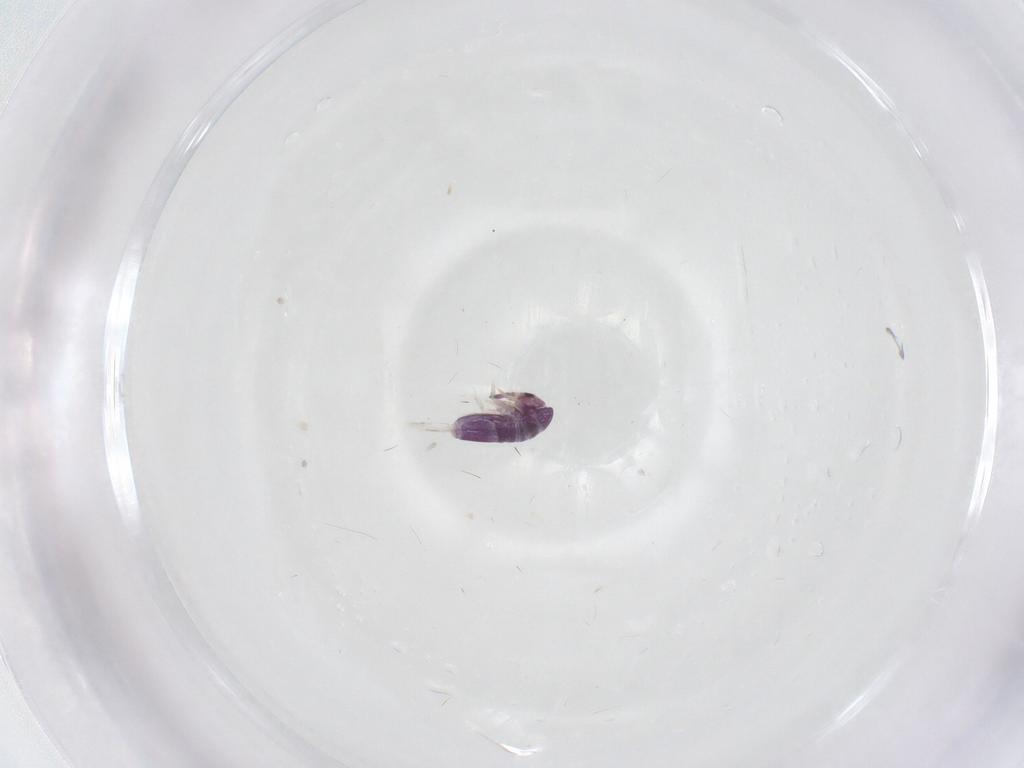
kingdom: Animalia
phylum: Arthropoda
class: Collembola
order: Entomobryomorpha
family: Entomobryidae
